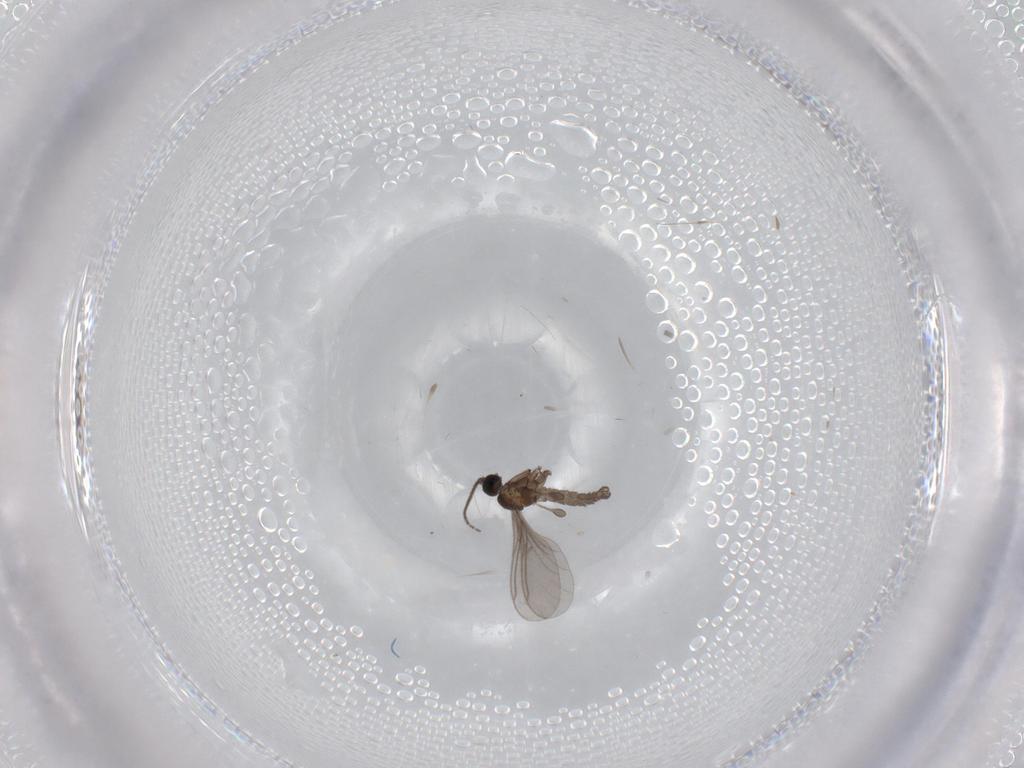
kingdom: Animalia
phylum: Arthropoda
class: Insecta
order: Diptera
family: Sciaridae
